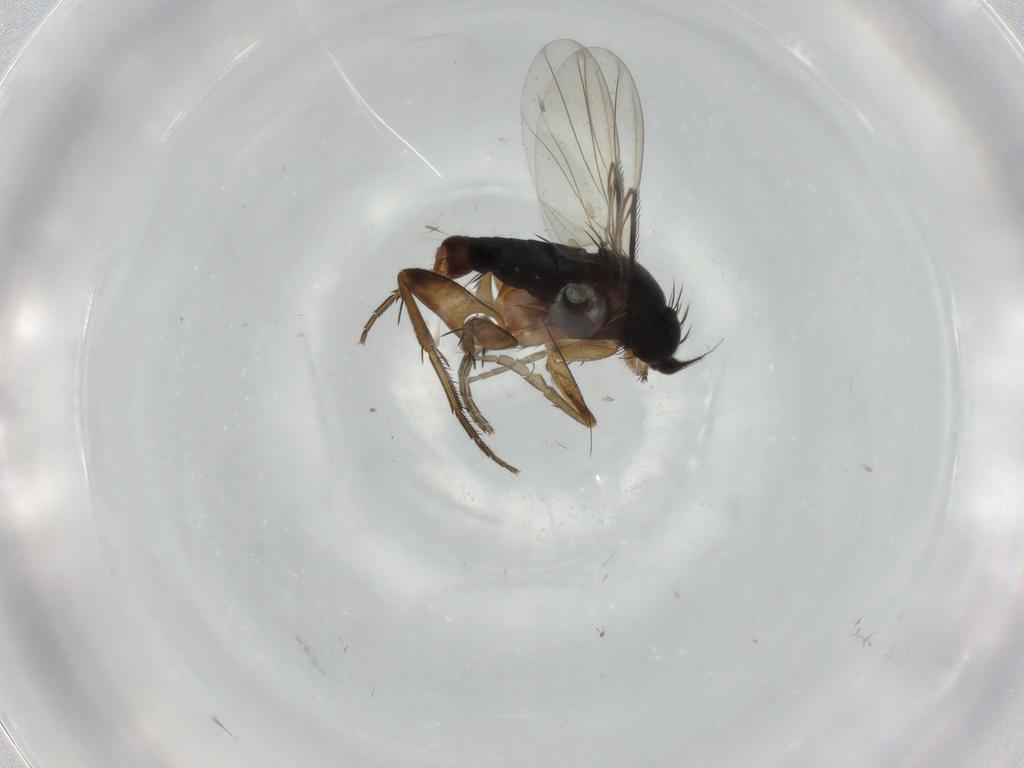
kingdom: Animalia
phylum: Arthropoda
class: Insecta
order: Diptera
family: Phoridae
